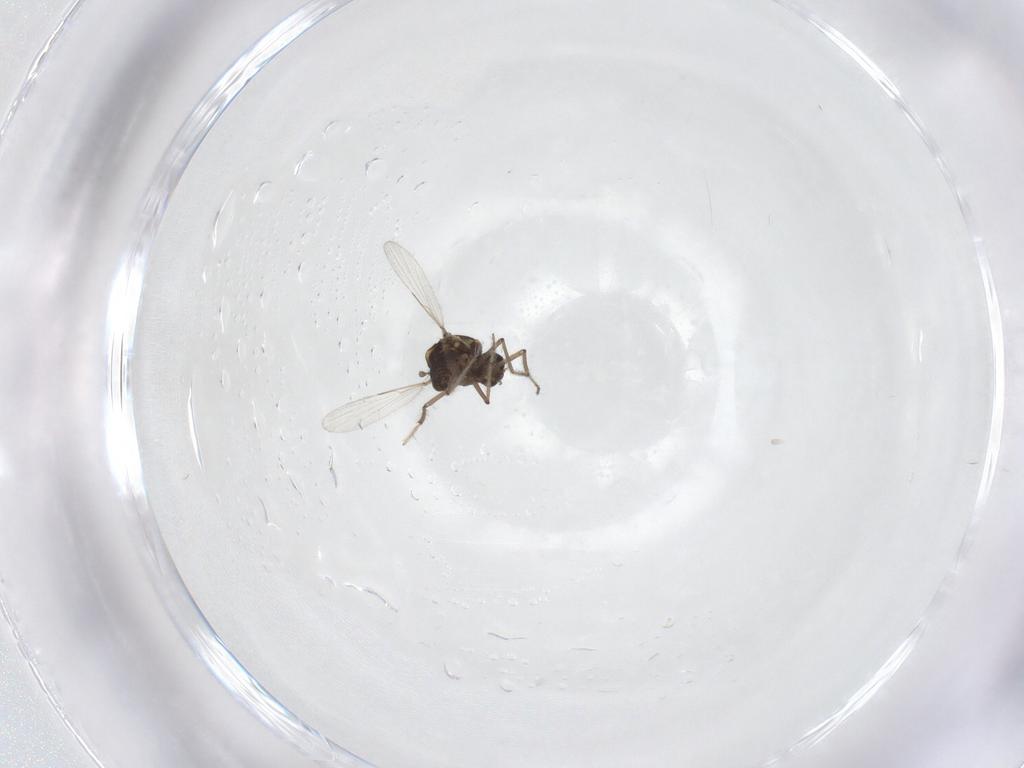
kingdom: Animalia
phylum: Arthropoda
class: Insecta
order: Diptera
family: Ceratopogonidae
